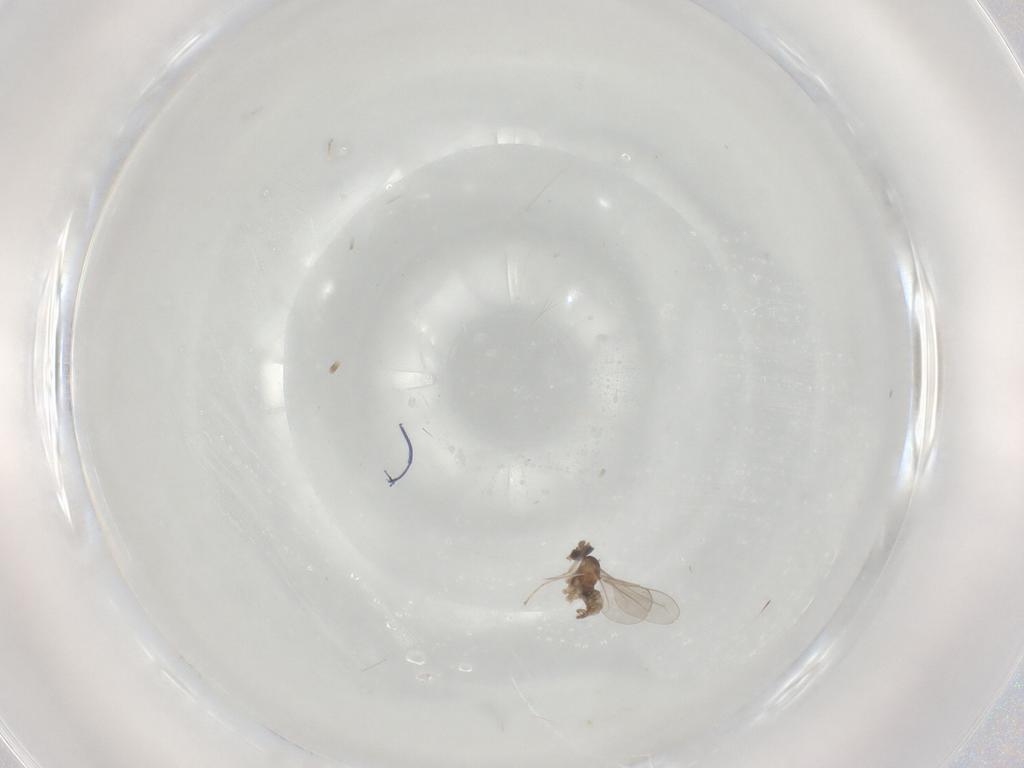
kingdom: Animalia
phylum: Arthropoda
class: Insecta
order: Diptera
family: Cecidomyiidae
